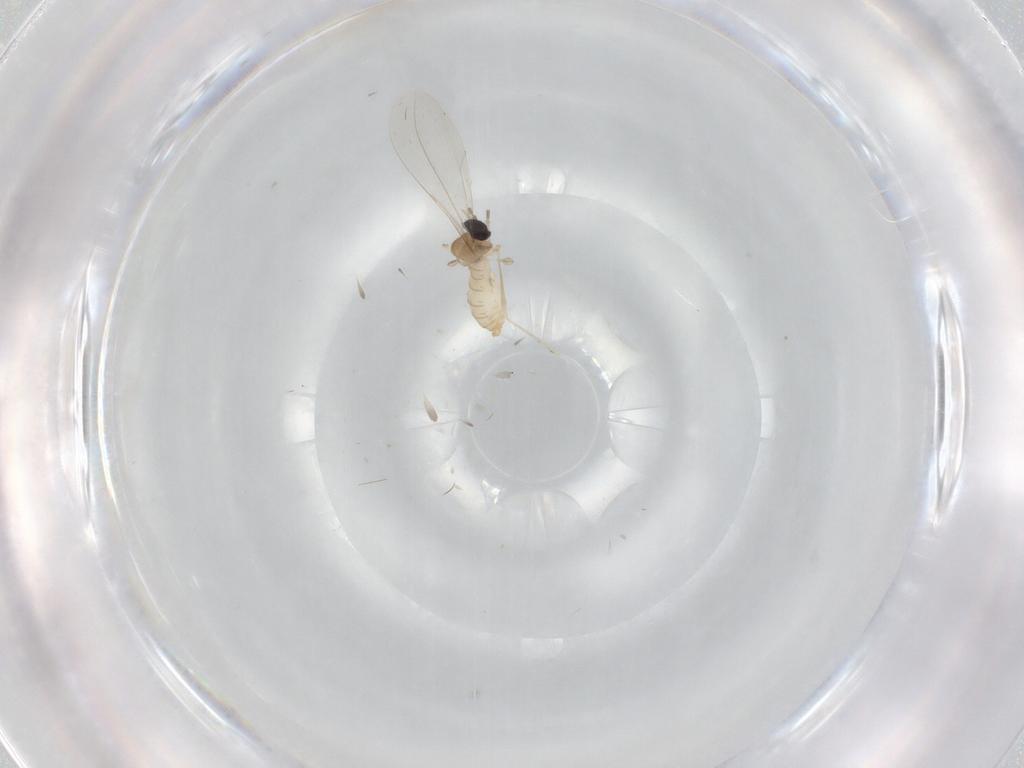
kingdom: Animalia
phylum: Arthropoda
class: Insecta
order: Diptera
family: Cecidomyiidae
